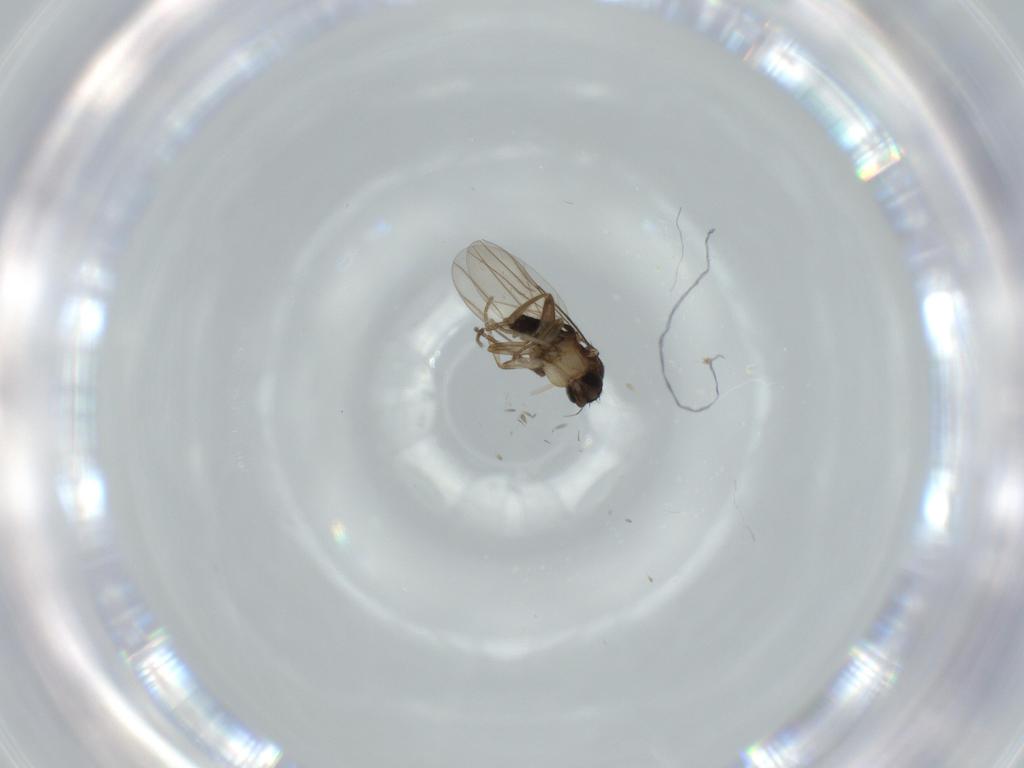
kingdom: Animalia
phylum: Arthropoda
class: Insecta
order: Diptera
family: Phoridae
